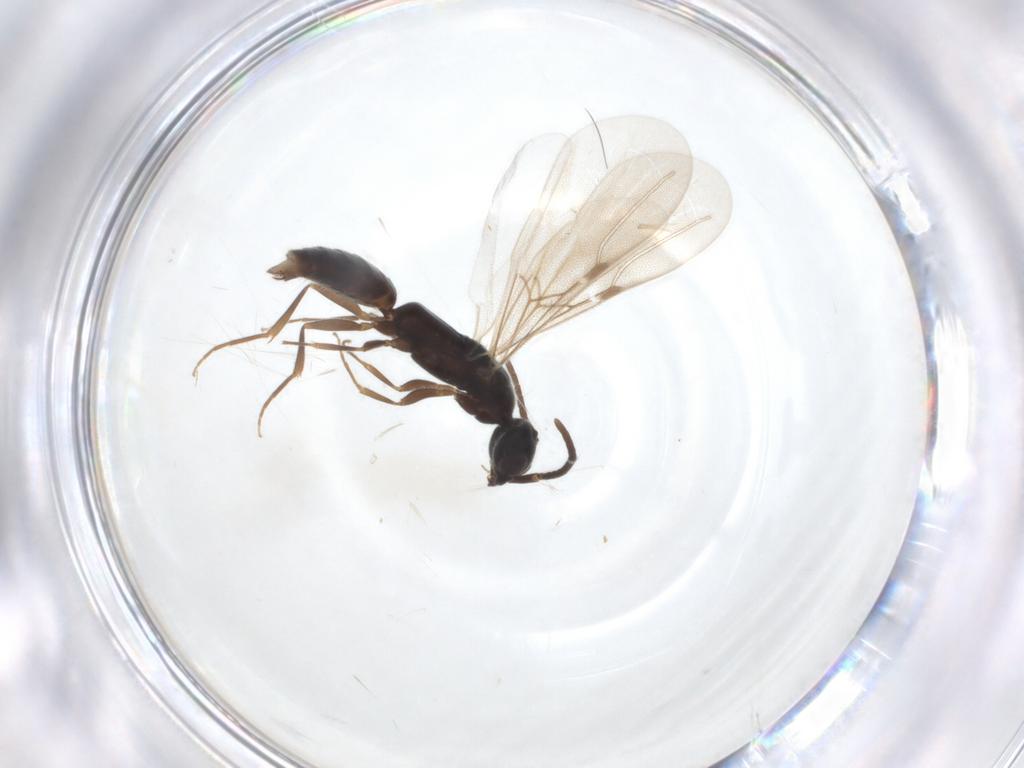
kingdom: Animalia
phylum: Arthropoda
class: Insecta
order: Hymenoptera
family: Bethylidae
